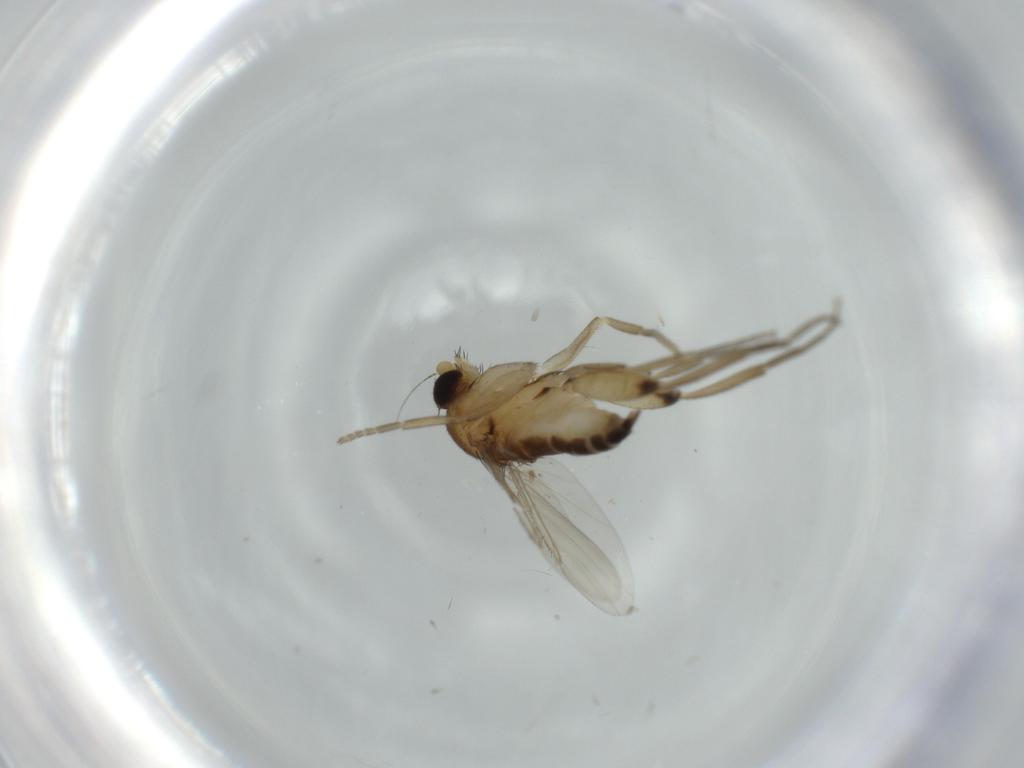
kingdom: Animalia
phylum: Arthropoda
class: Insecta
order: Diptera
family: Phoridae
